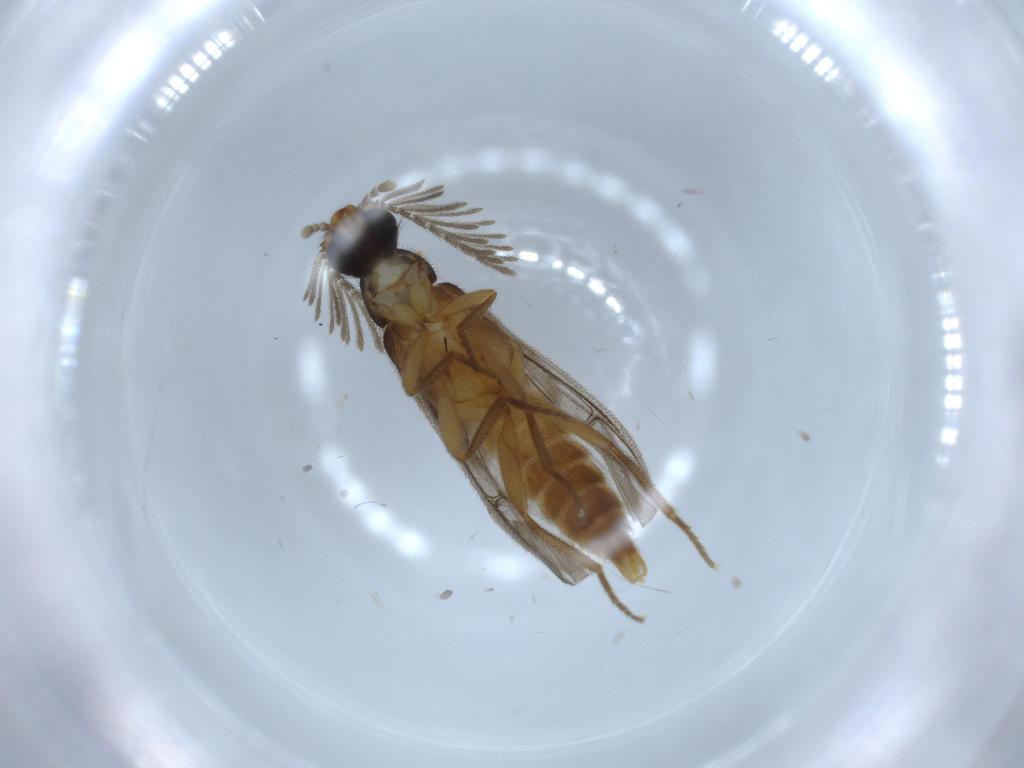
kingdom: Animalia
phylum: Arthropoda
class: Insecta
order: Coleoptera
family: Scraptiidae
